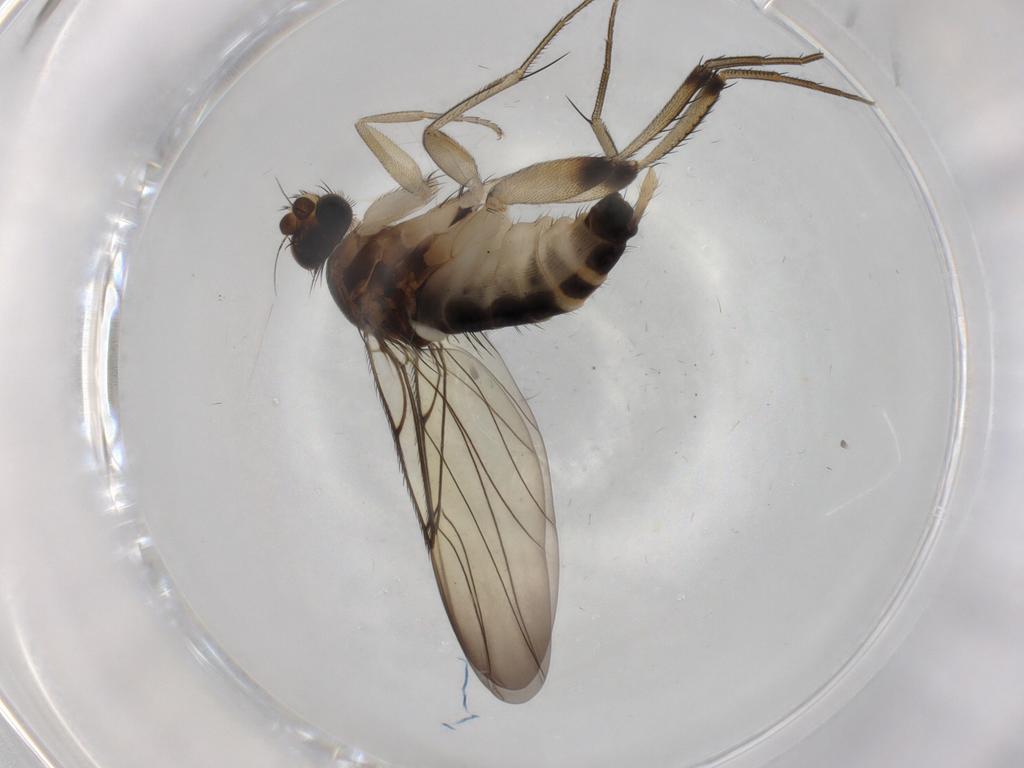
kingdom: Animalia
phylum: Arthropoda
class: Insecta
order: Diptera
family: Phoridae
